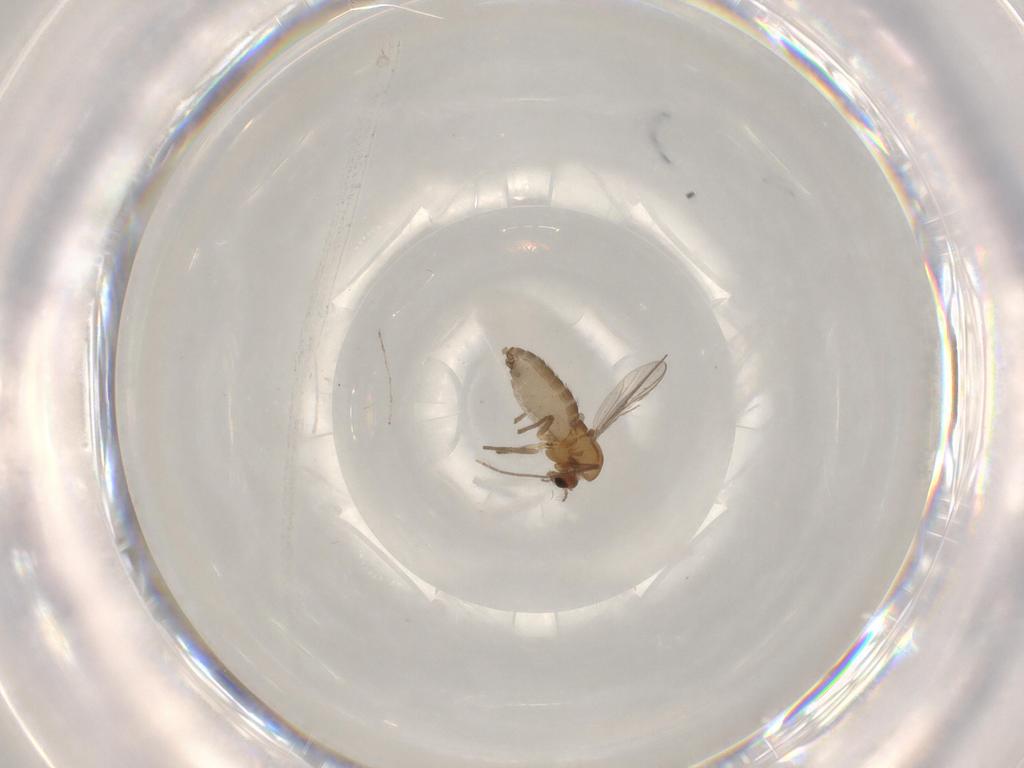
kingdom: Animalia
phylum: Arthropoda
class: Insecta
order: Diptera
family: Chironomidae
